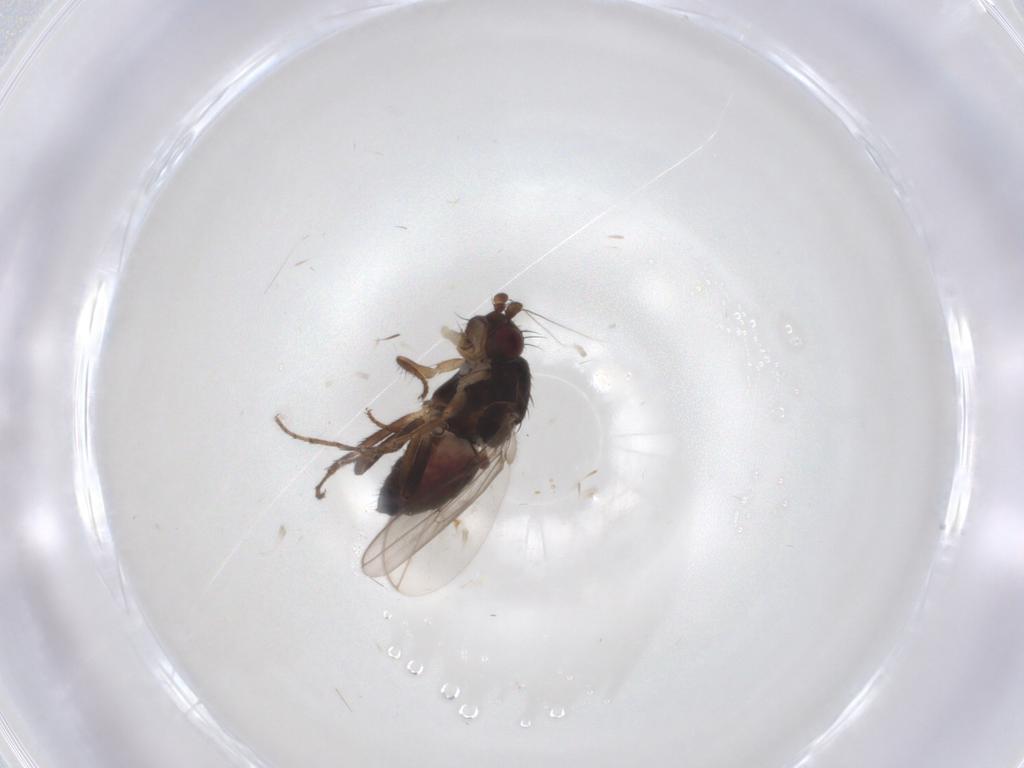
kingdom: Animalia
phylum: Arthropoda
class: Insecta
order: Diptera
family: Sphaeroceridae
